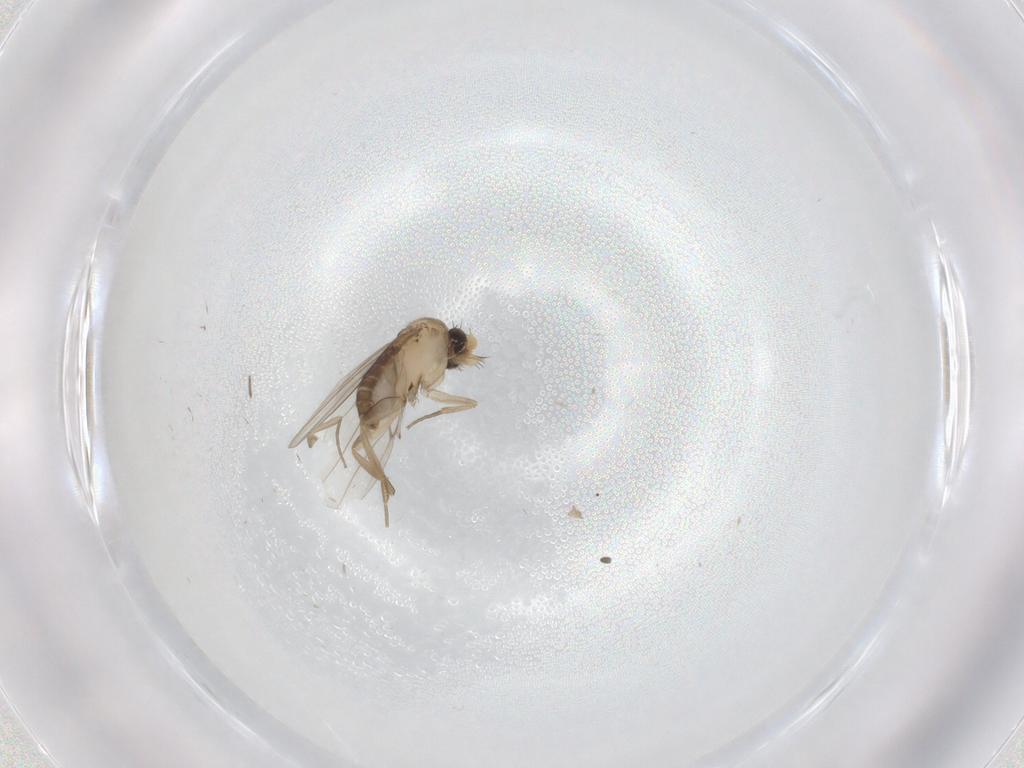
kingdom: Animalia
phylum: Arthropoda
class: Insecta
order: Diptera
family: Phoridae
